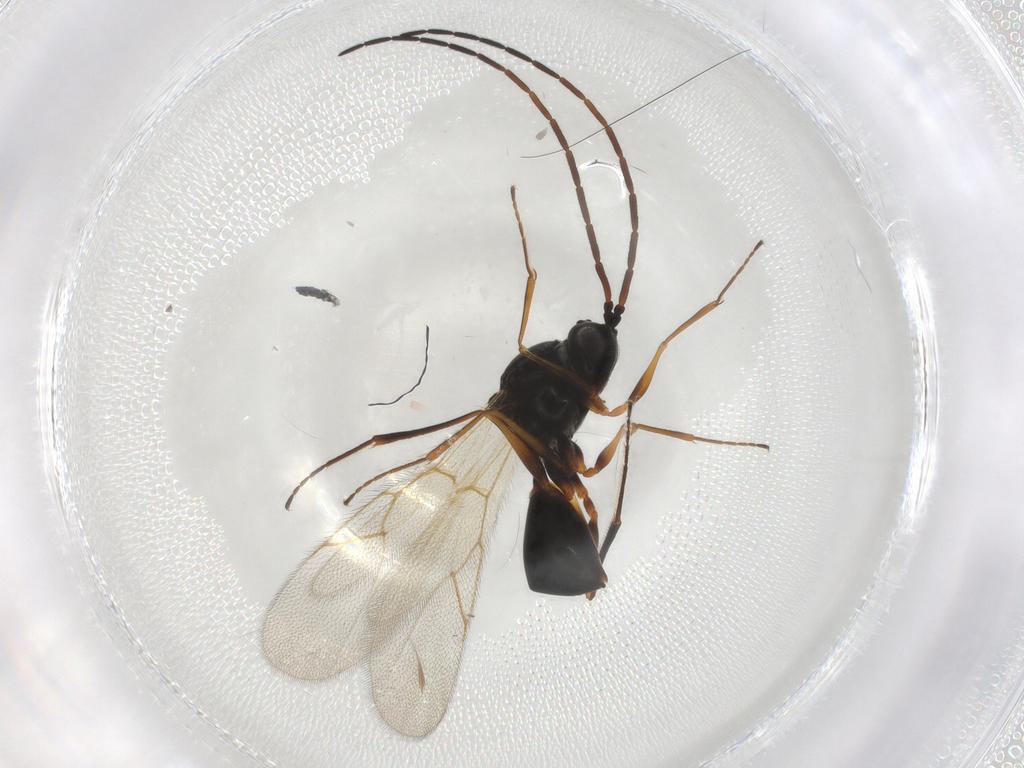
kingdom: Animalia
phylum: Arthropoda
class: Insecta
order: Hymenoptera
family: Figitidae
